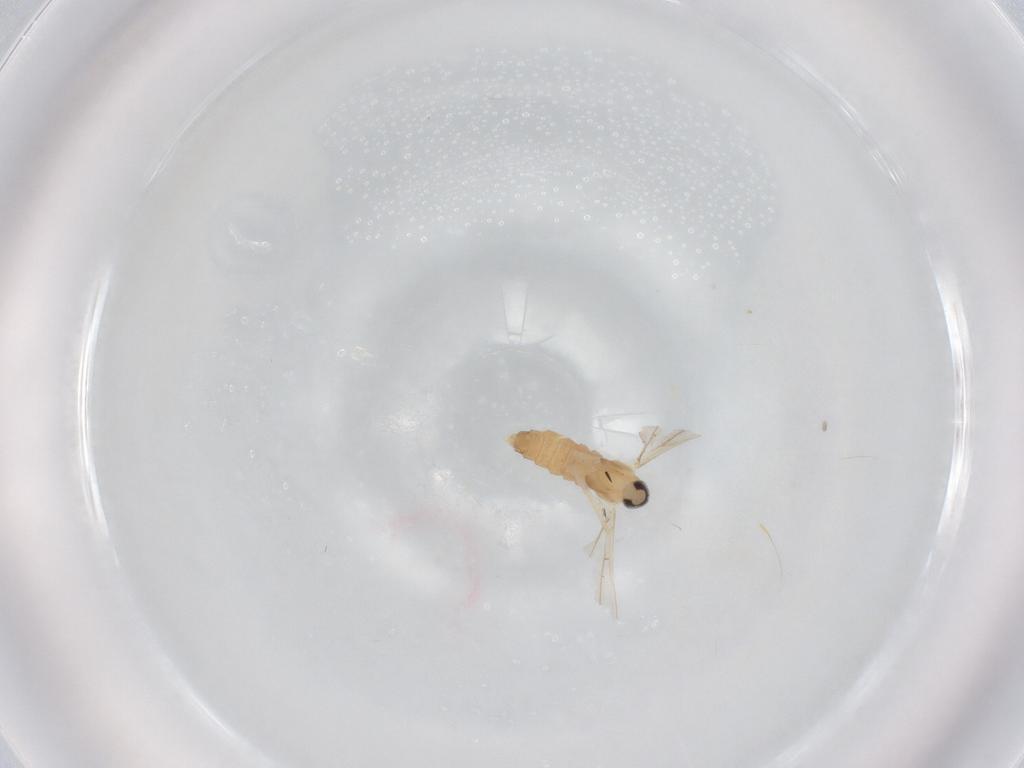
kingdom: Animalia
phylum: Arthropoda
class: Insecta
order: Diptera
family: Cecidomyiidae
